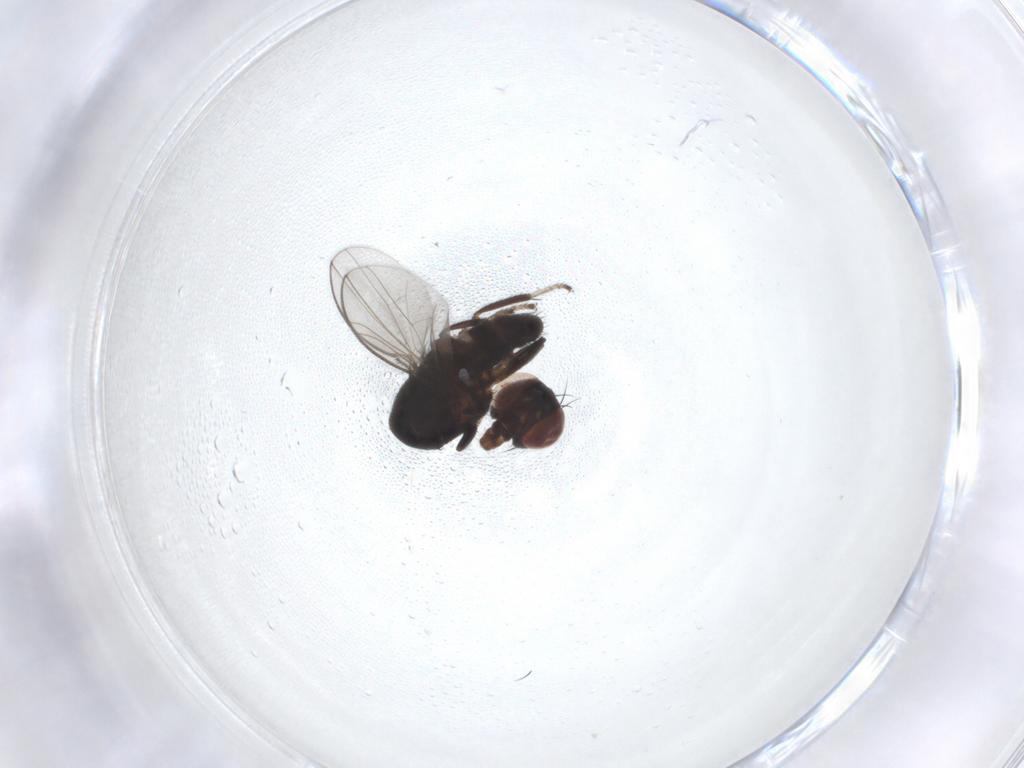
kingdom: Animalia
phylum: Arthropoda
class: Insecta
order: Diptera
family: Ephydridae
